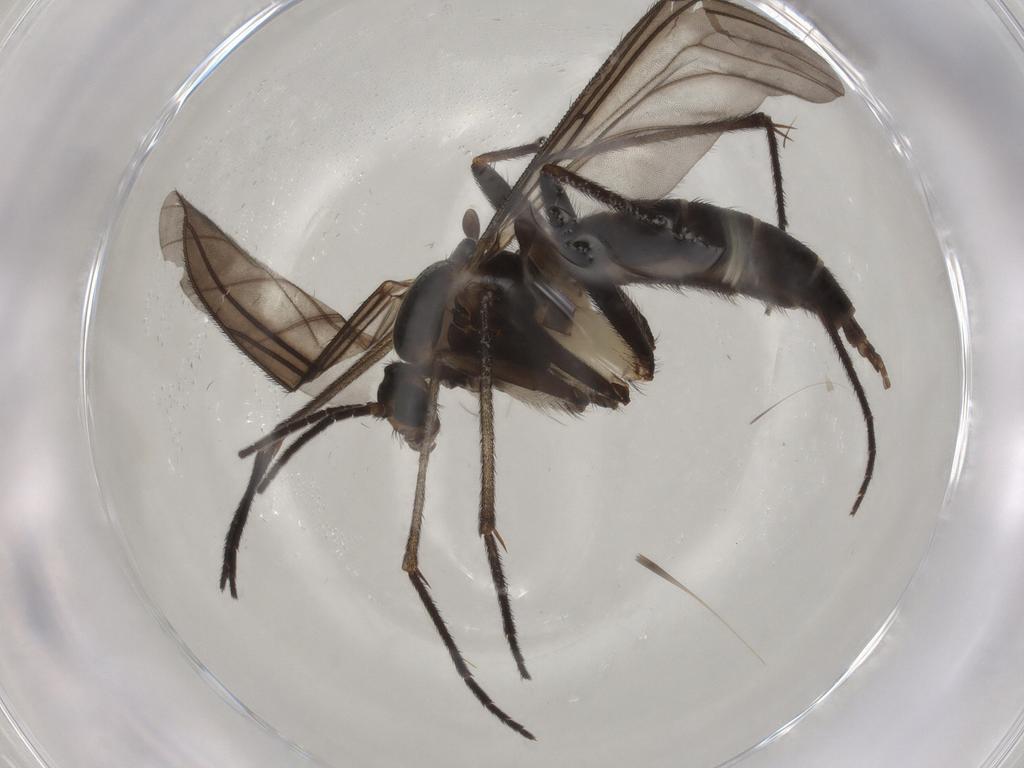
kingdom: Animalia
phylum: Arthropoda
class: Insecta
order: Diptera
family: Sciaridae
